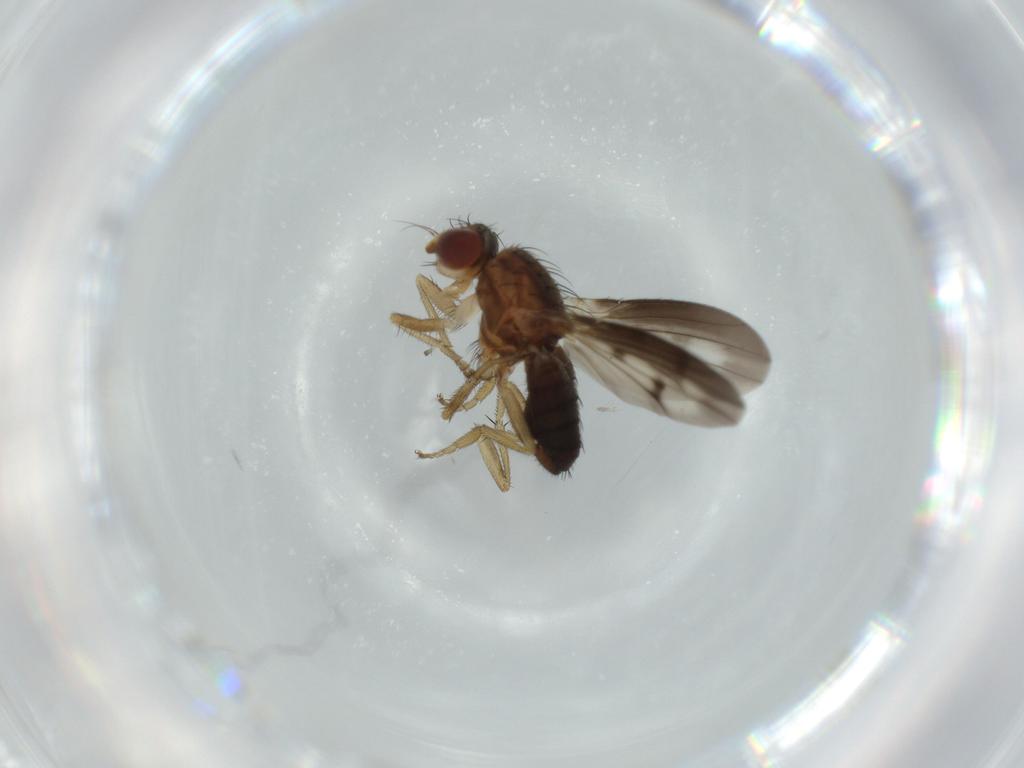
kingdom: Animalia
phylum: Arthropoda
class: Insecta
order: Diptera
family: Heleomyzidae
